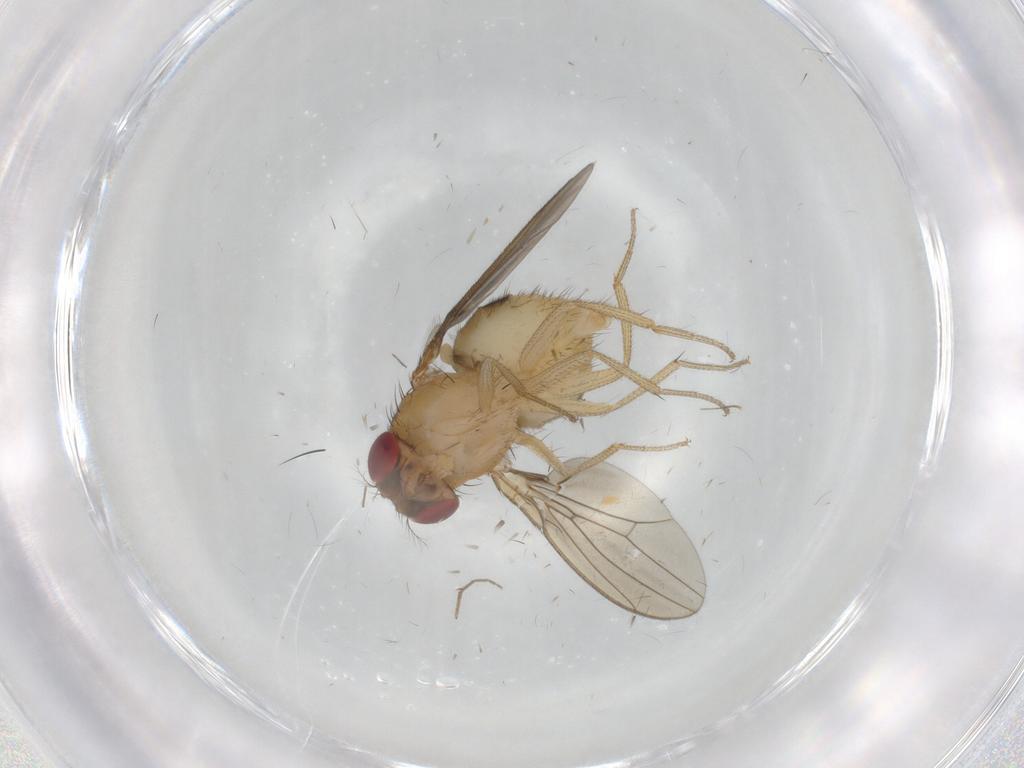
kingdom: Animalia
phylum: Arthropoda
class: Insecta
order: Diptera
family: Drosophilidae
